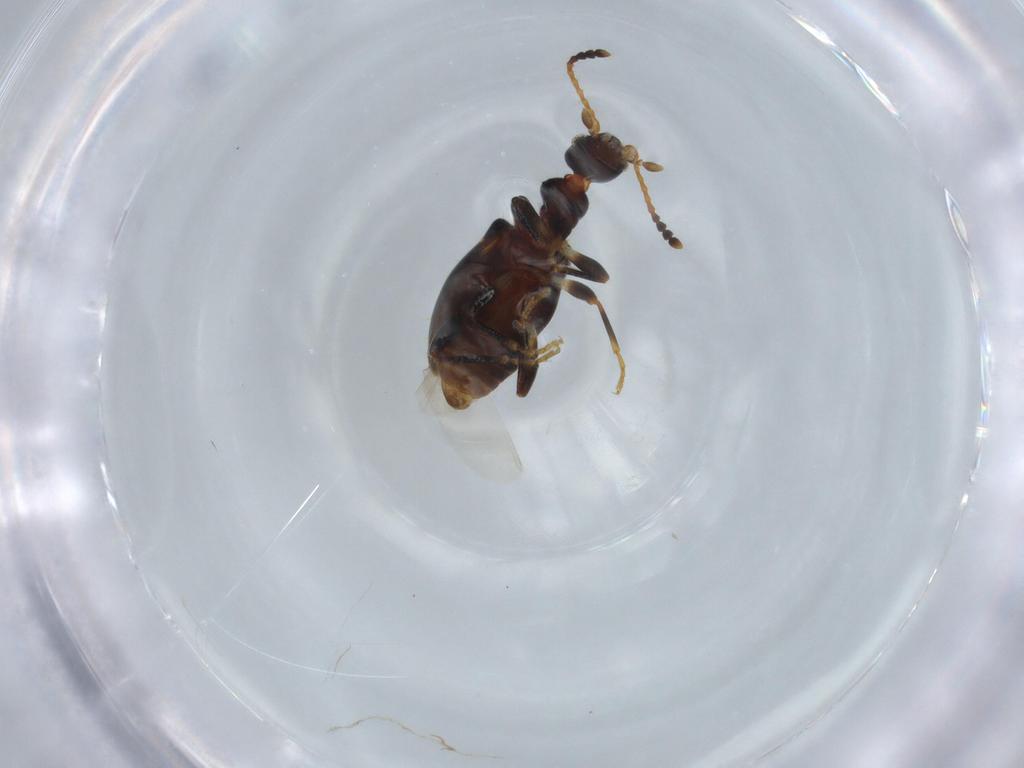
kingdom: Animalia
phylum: Arthropoda
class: Insecta
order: Coleoptera
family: Anthicidae
